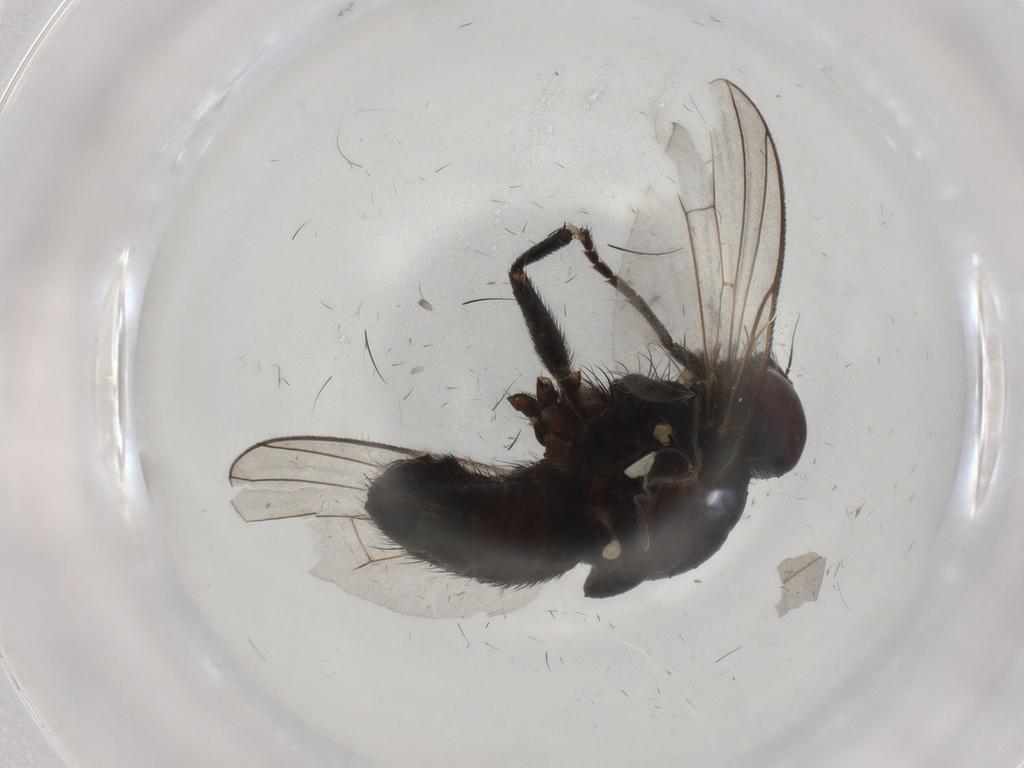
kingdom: Animalia
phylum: Arthropoda
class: Insecta
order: Diptera
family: Muscidae
